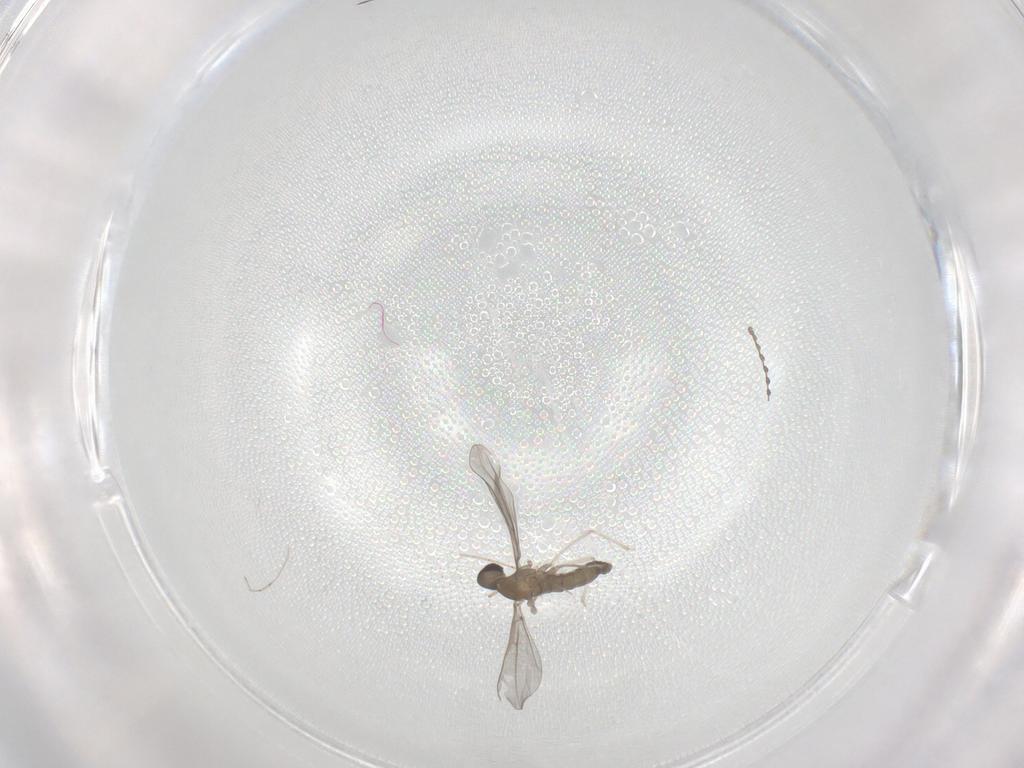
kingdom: Animalia
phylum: Arthropoda
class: Insecta
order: Diptera
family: Cecidomyiidae
